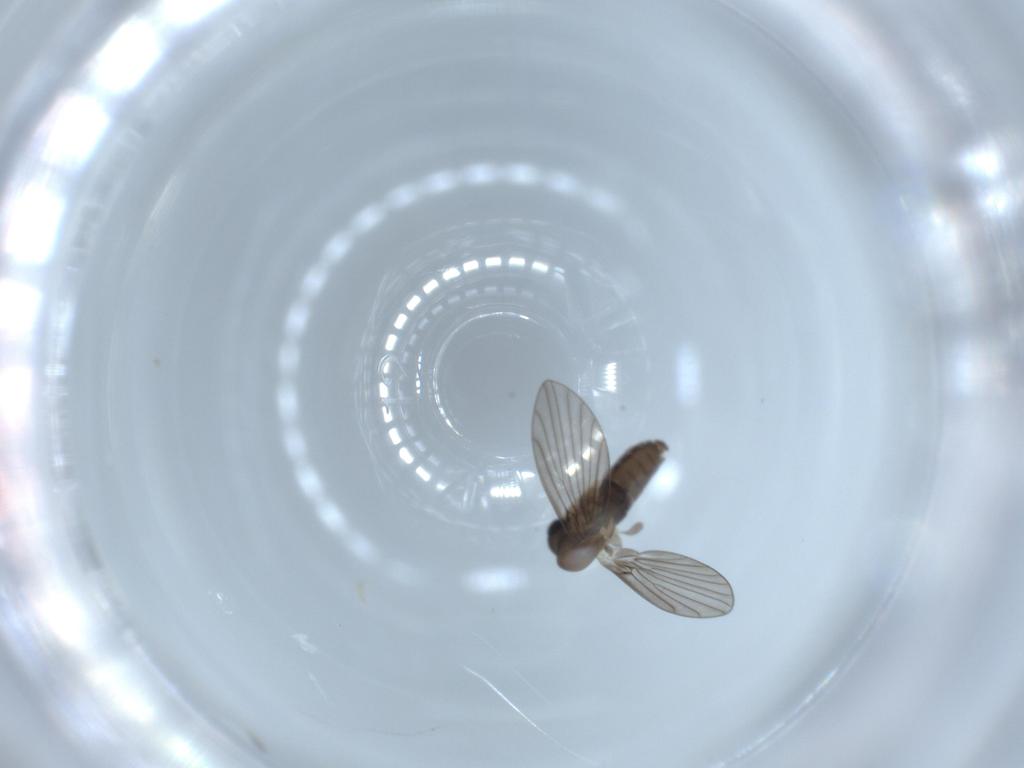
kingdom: Animalia
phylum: Arthropoda
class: Insecta
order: Diptera
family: Psychodidae
